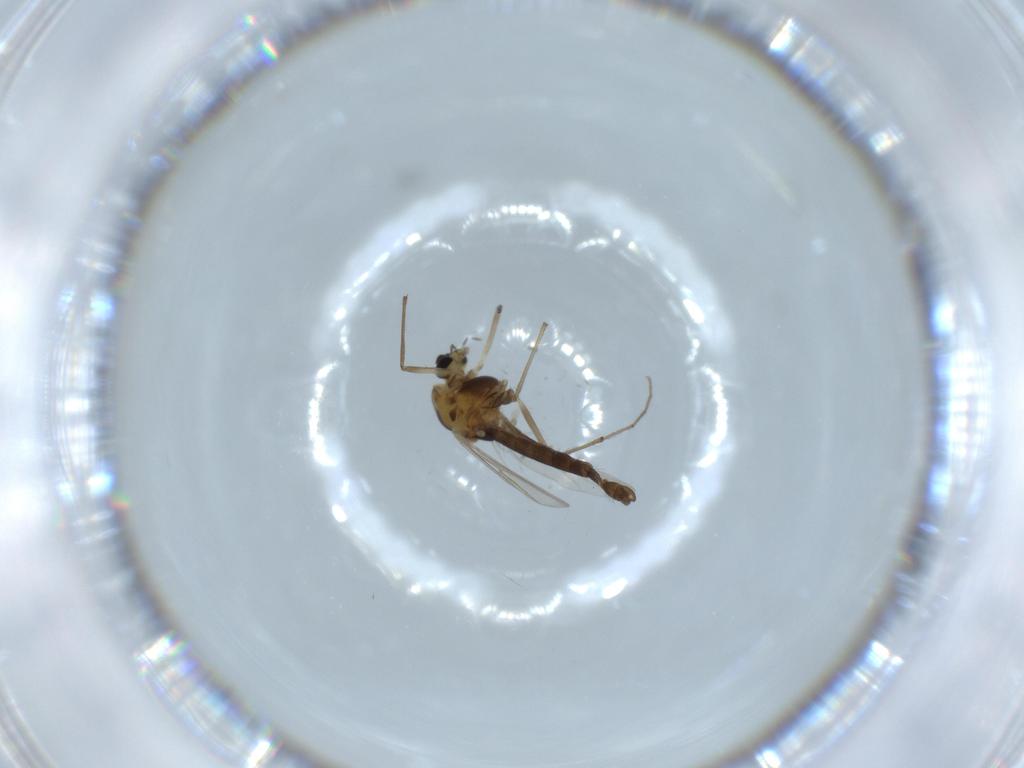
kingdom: Animalia
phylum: Arthropoda
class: Insecta
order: Diptera
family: Chironomidae
